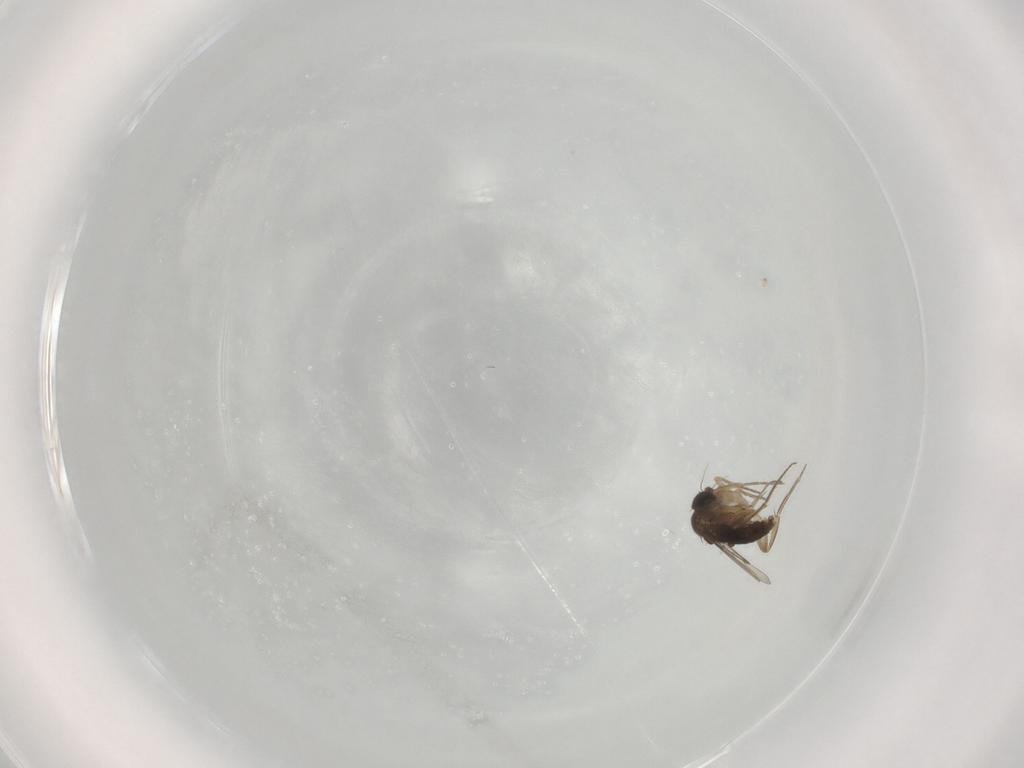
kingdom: Animalia
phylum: Arthropoda
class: Insecta
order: Diptera
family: Phoridae
